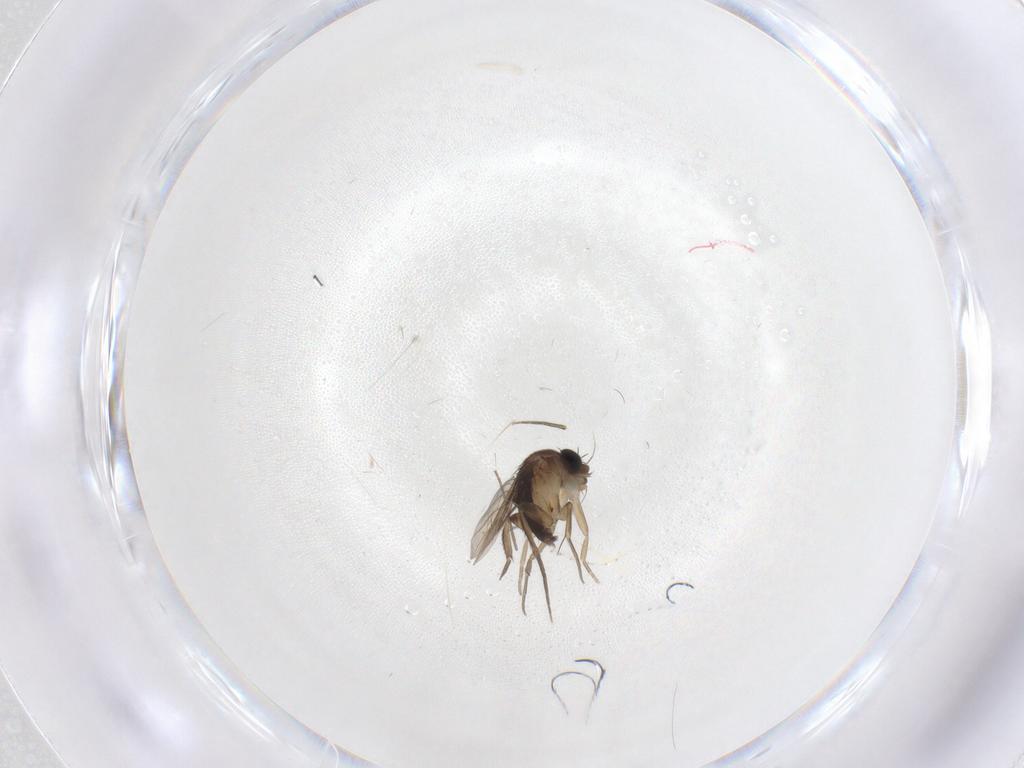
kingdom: Animalia
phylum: Arthropoda
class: Insecta
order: Diptera
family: Phoridae
